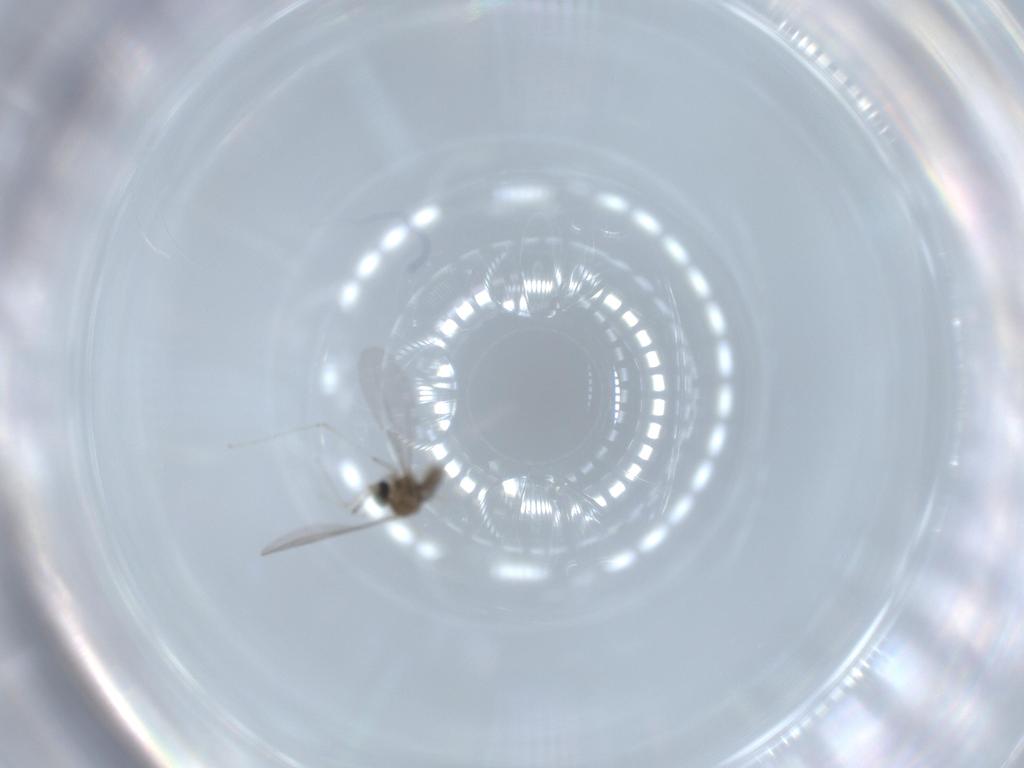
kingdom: Animalia
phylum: Arthropoda
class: Insecta
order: Diptera
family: Cecidomyiidae
